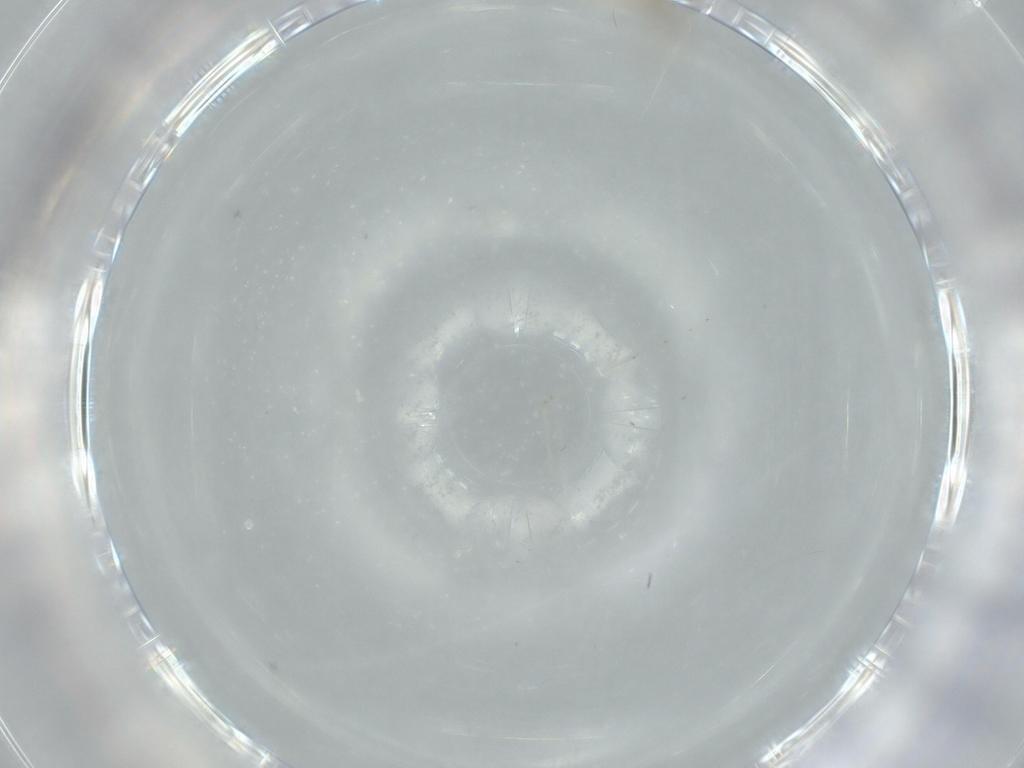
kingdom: Animalia
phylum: Arthropoda
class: Insecta
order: Diptera
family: Cecidomyiidae
